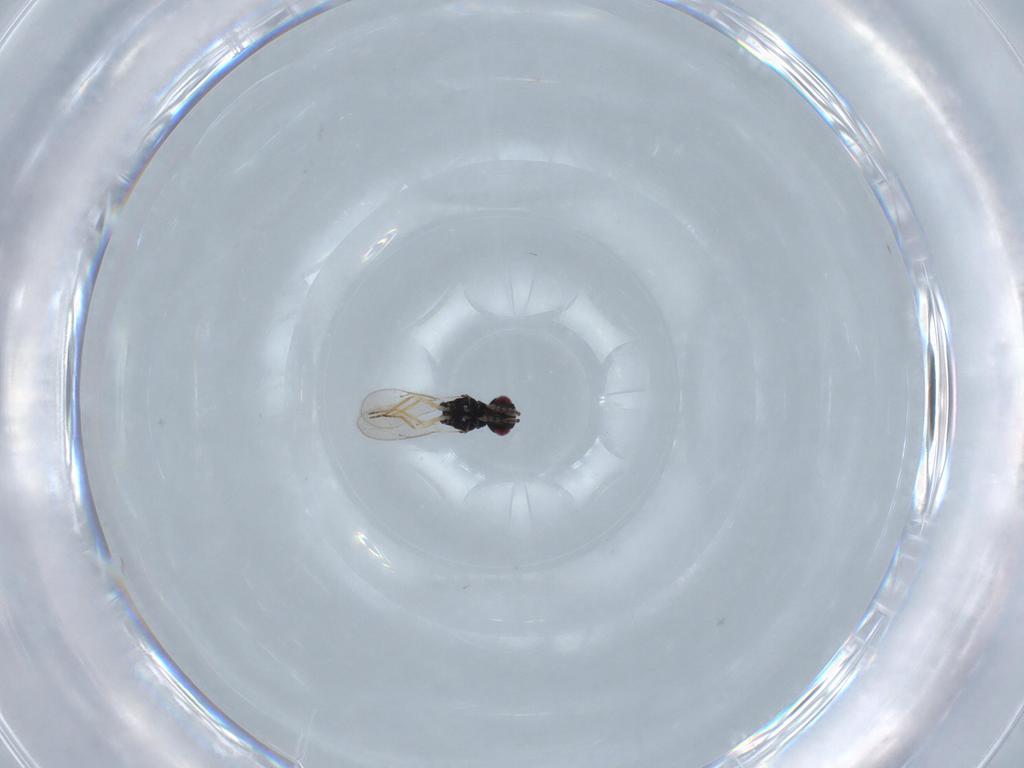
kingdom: Animalia
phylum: Arthropoda
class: Insecta
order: Hymenoptera
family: Eulophidae
